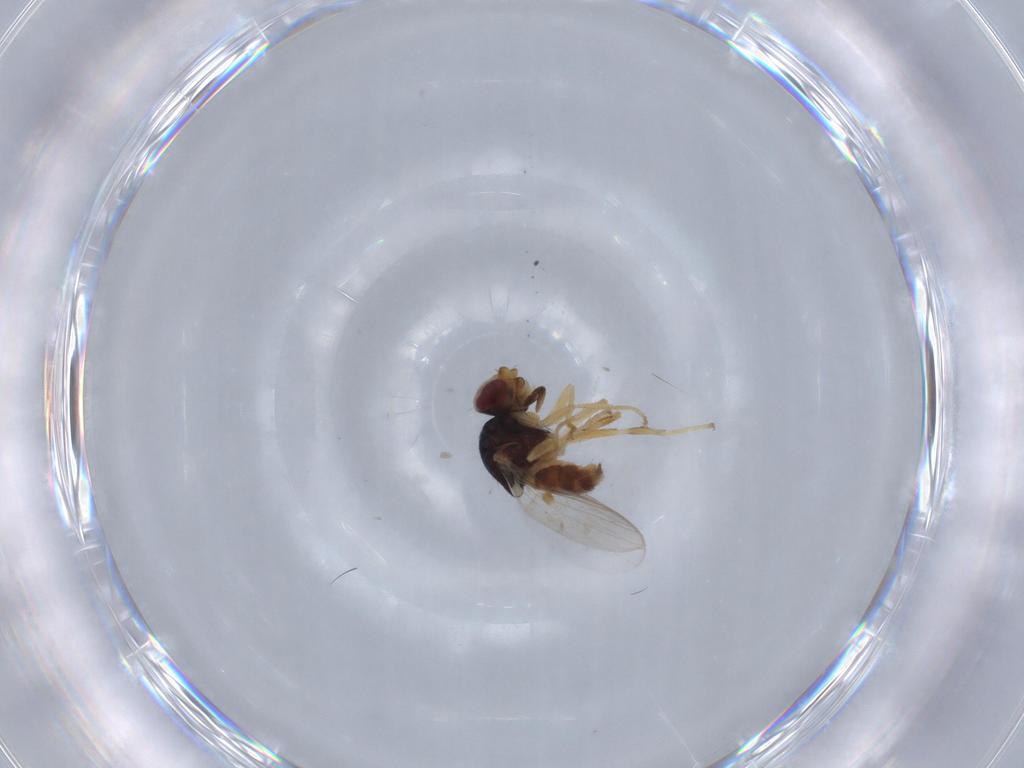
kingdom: Animalia
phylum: Arthropoda
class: Insecta
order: Diptera
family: Chloropidae
